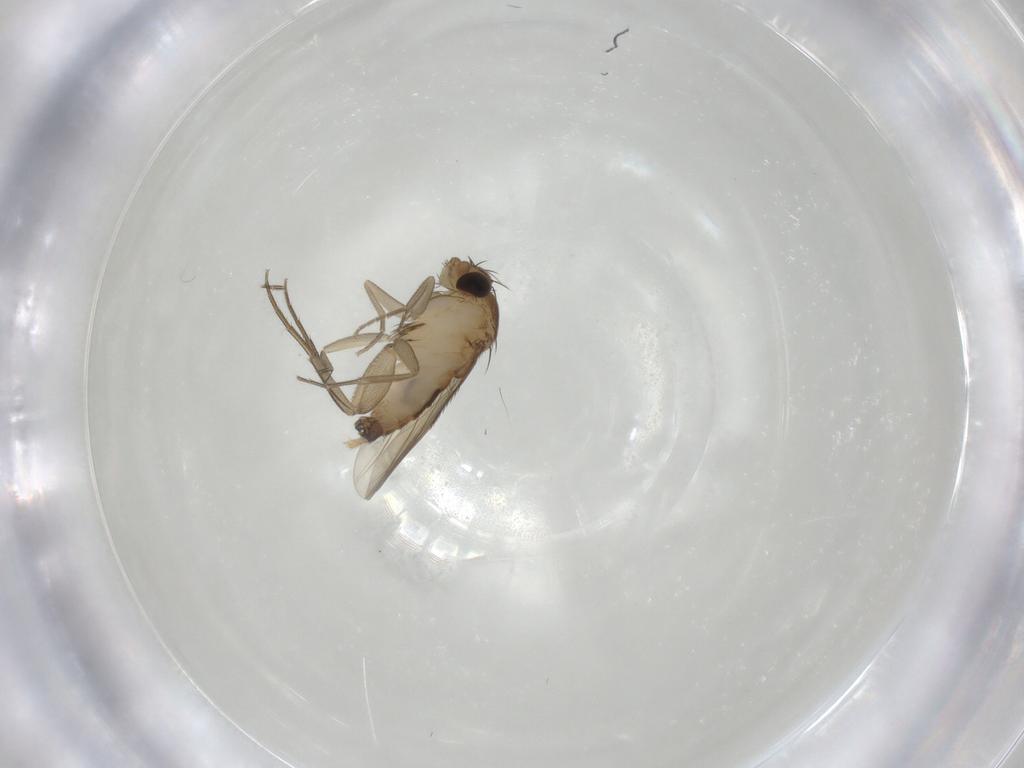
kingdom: Animalia
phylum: Arthropoda
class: Insecta
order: Diptera
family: Phoridae
